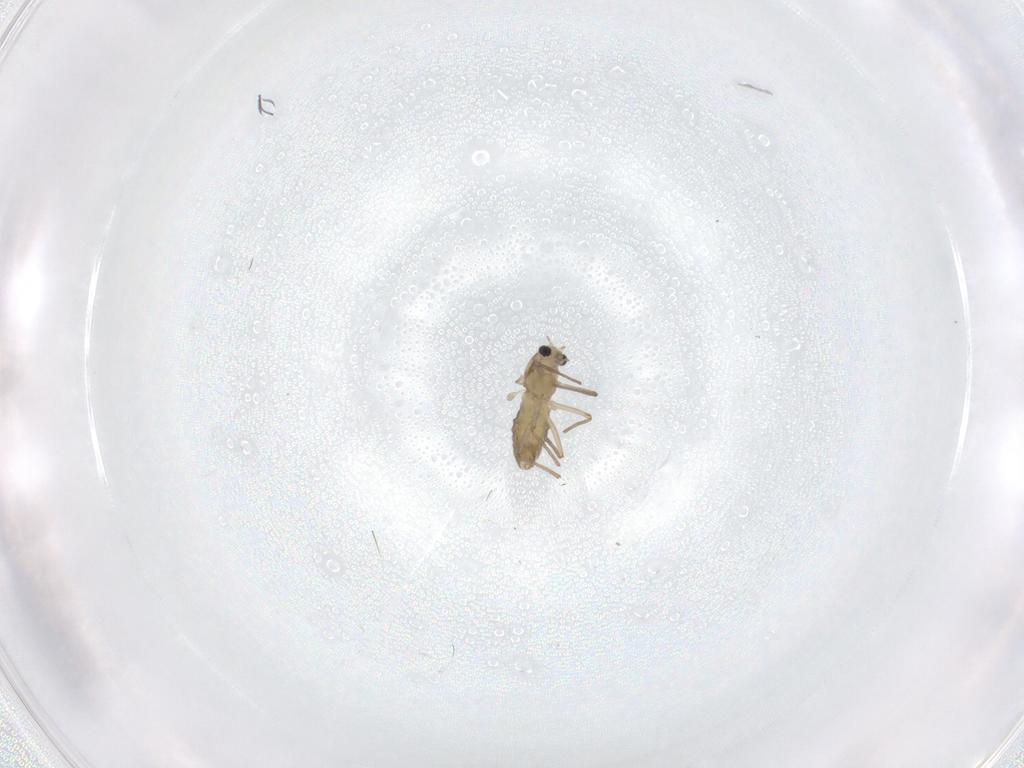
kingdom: Animalia
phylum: Arthropoda
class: Insecta
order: Diptera
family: Chironomidae
